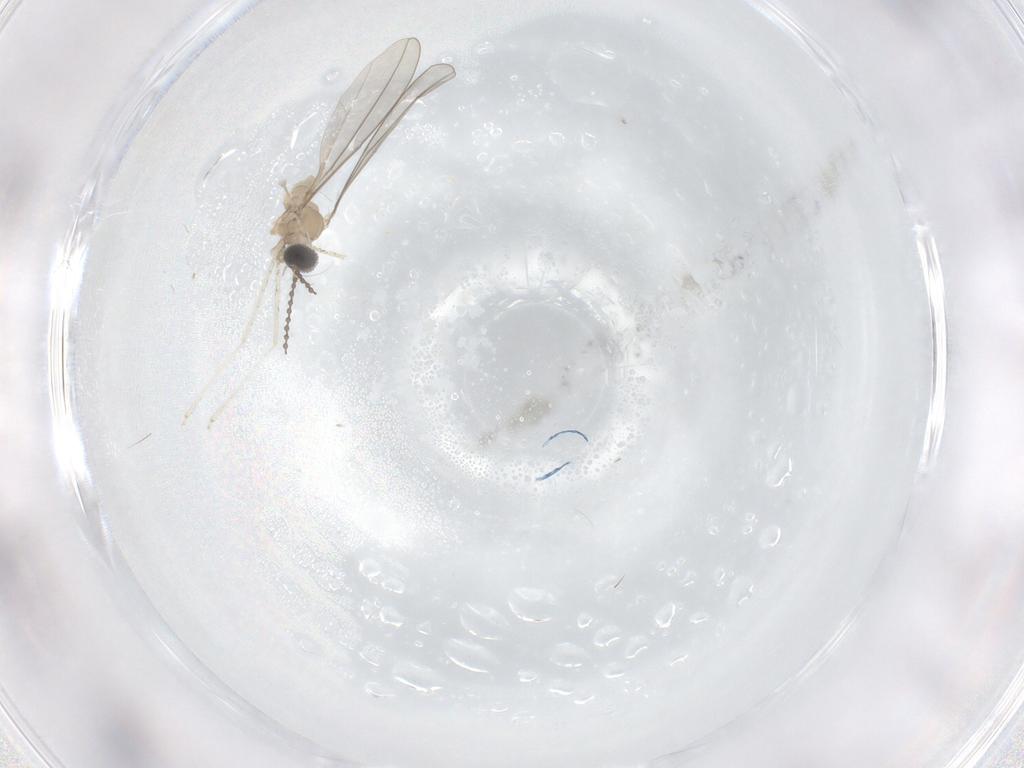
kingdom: Animalia
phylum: Arthropoda
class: Insecta
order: Diptera
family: Cecidomyiidae
